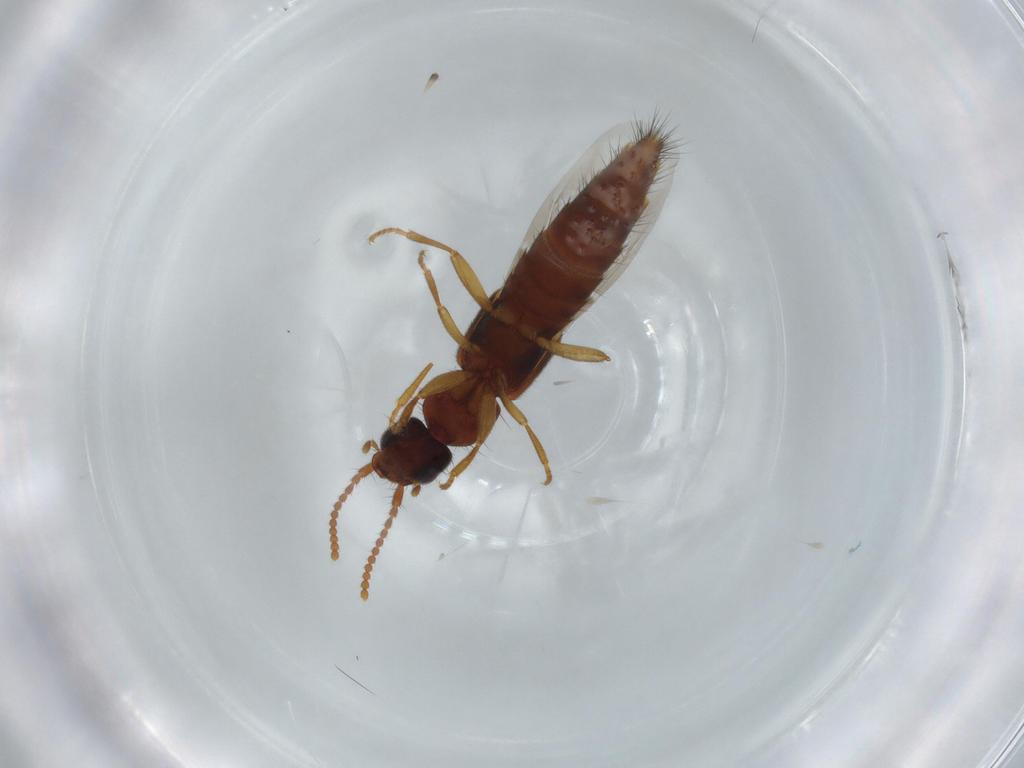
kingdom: Animalia
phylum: Arthropoda
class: Insecta
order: Coleoptera
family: Staphylinidae
